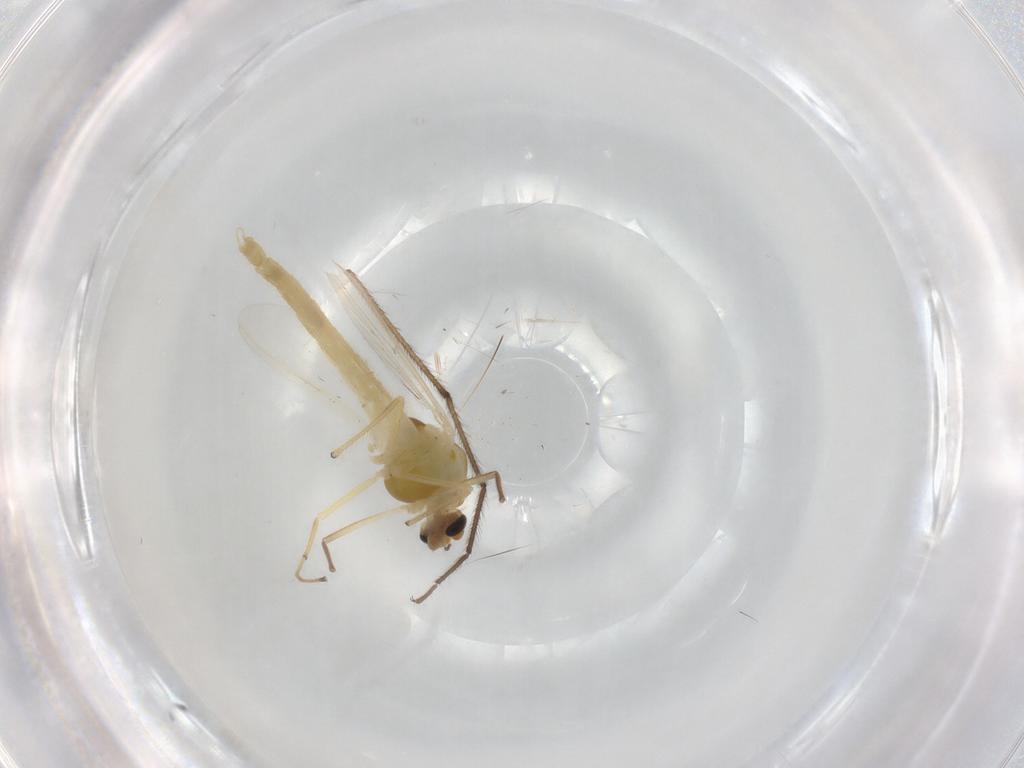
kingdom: Animalia
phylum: Arthropoda
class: Insecta
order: Diptera
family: Chironomidae
